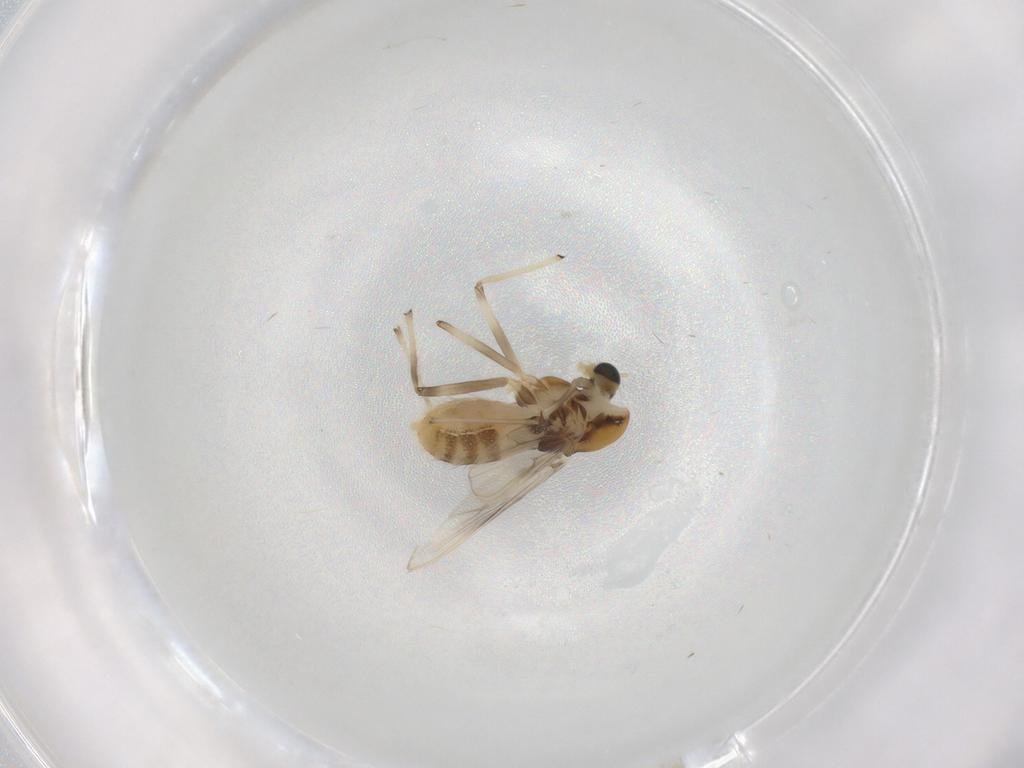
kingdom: Animalia
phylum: Arthropoda
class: Insecta
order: Diptera
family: Chironomidae
